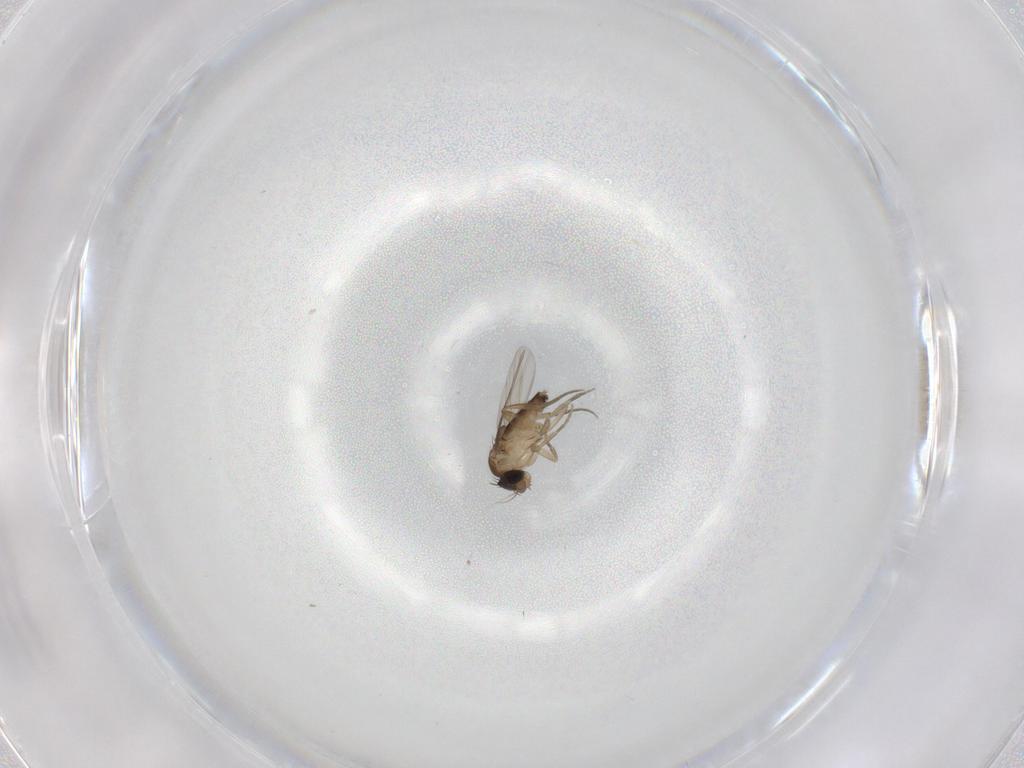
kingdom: Animalia
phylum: Arthropoda
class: Insecta
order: Diptera
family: Phoridae
